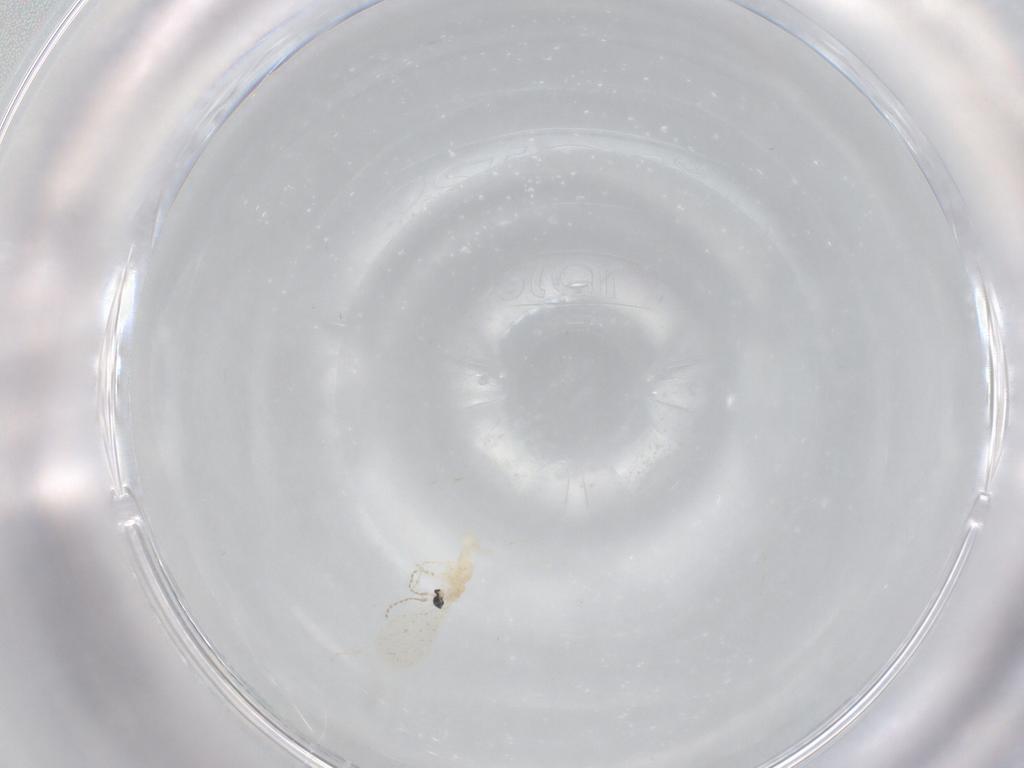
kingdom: Animalia
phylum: Arthropoda
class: Insecta
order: Diptera
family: Cecidomyiidae
